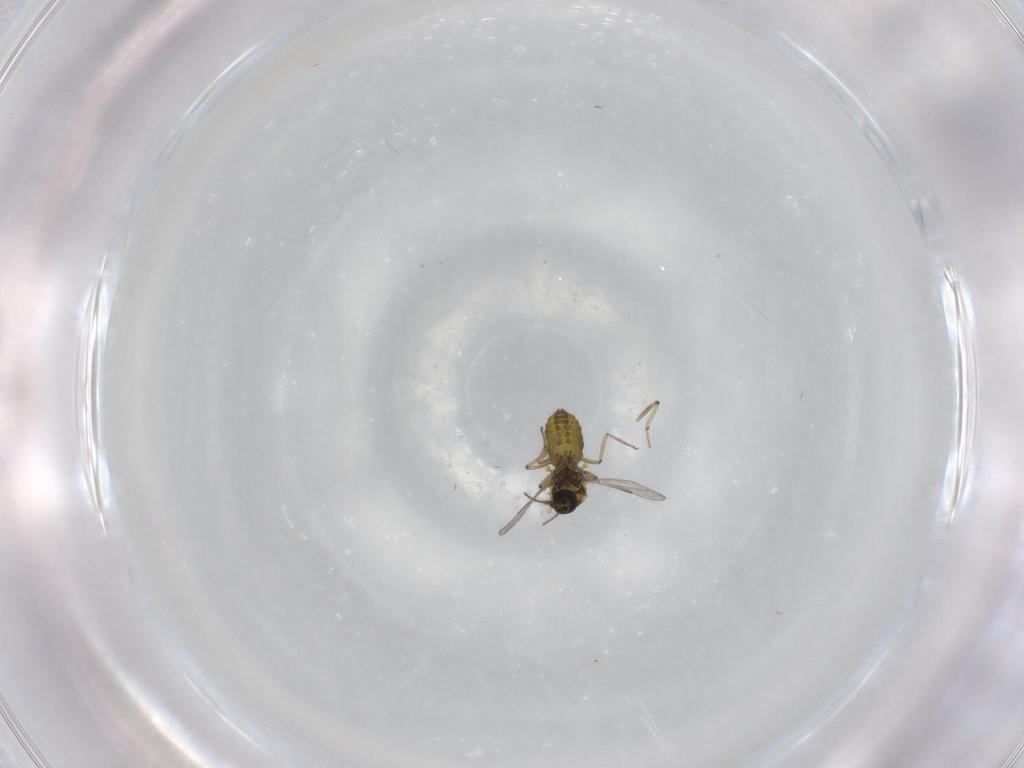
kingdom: Animalia
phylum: Arthropoda
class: Insecta
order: Diptera
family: Ceratopogonidae
